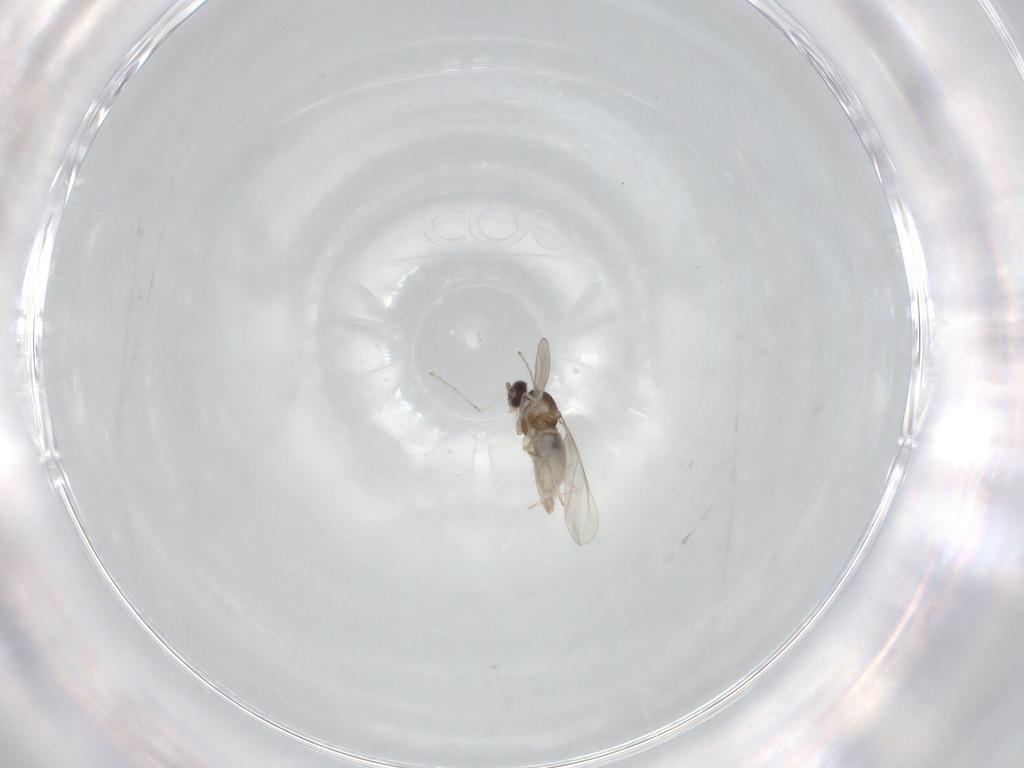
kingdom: Animalia
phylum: Arthropoda
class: Insecta
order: Diptera
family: Cecidomyiidae
